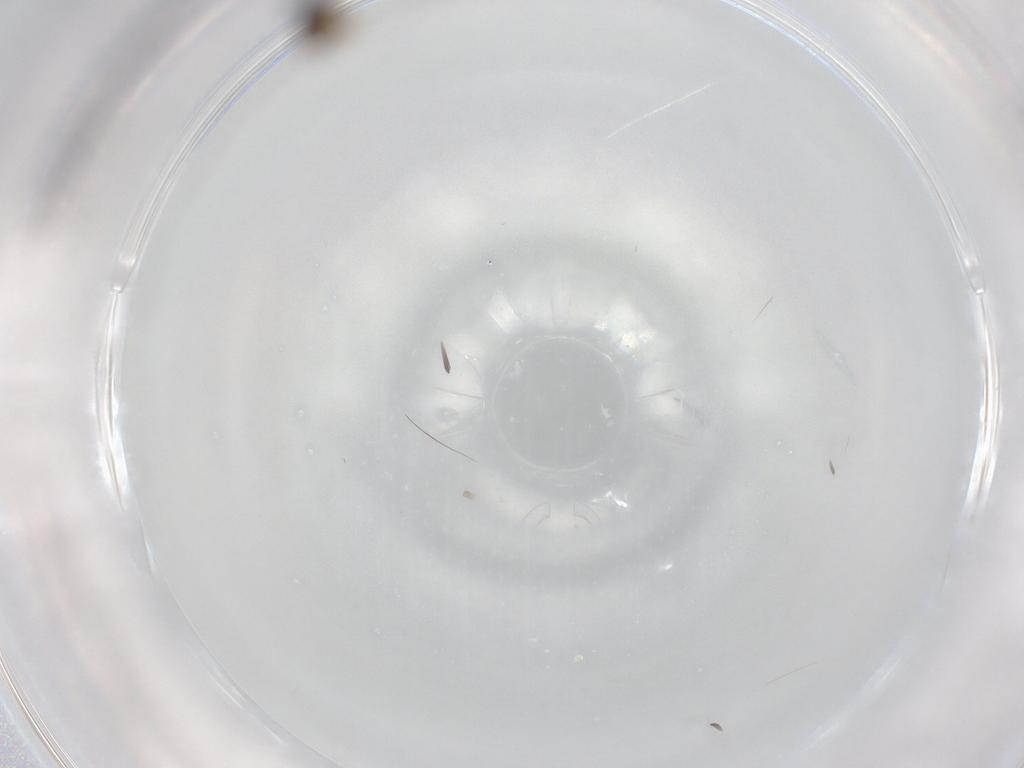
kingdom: Animalia
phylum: Arthropoda
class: Insecta
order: Diptera
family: Sciaridae
